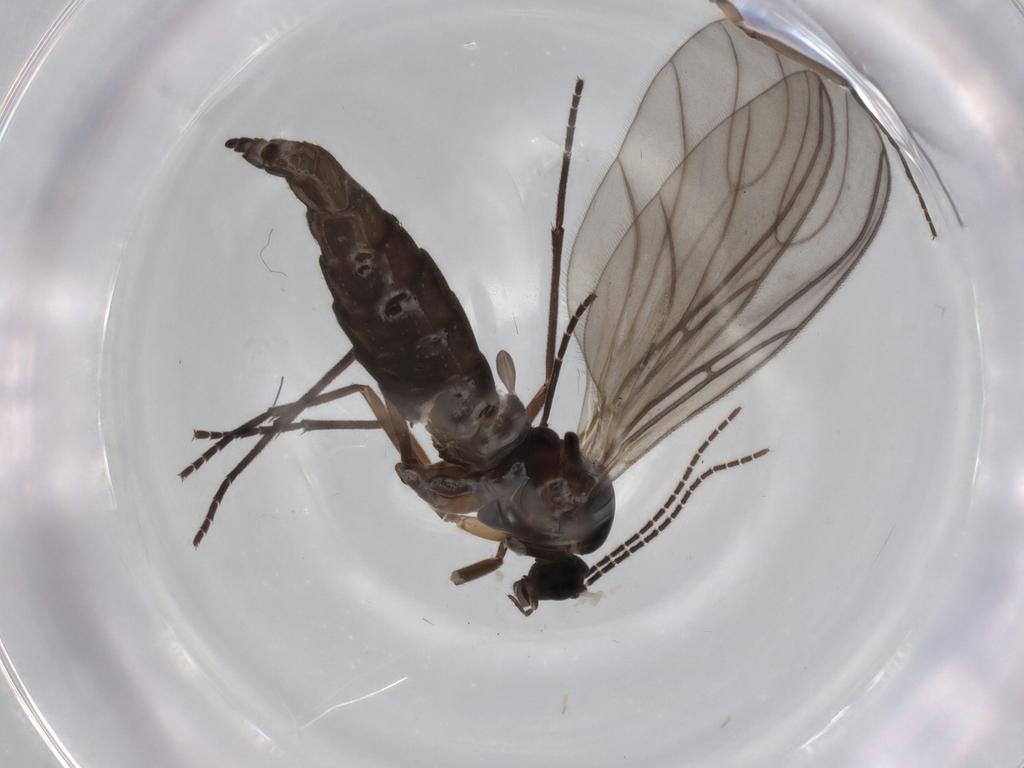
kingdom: Animalia
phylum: Arthropoda
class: Insecta
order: Diptera
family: Sciaridae
